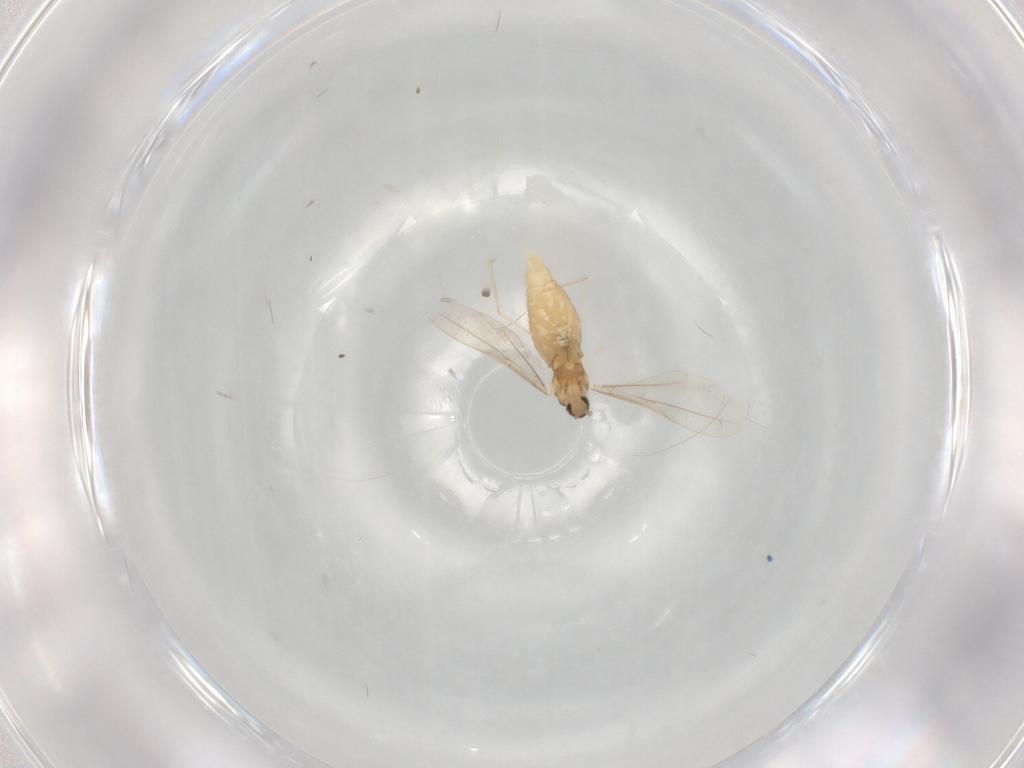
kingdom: Animalia
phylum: Arthropoda
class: Insecta
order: Diptera
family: Cecidomyiidae
